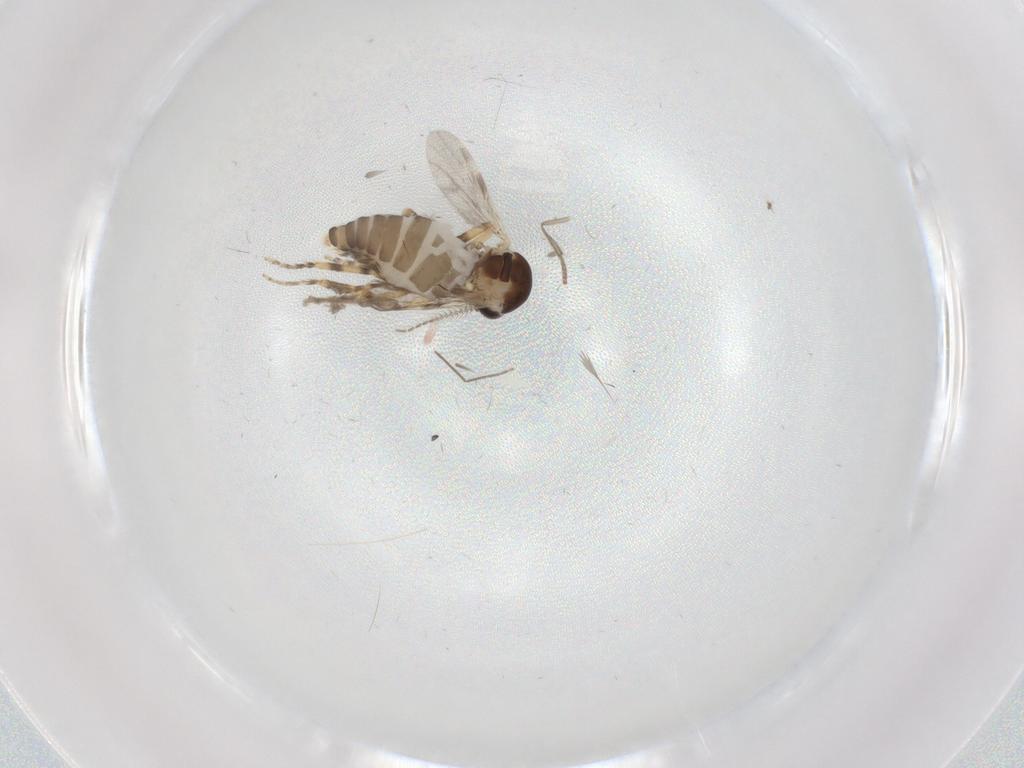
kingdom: Animalia
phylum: Arthropoda
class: Insecta
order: Diptera
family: Ceratopogonidae
